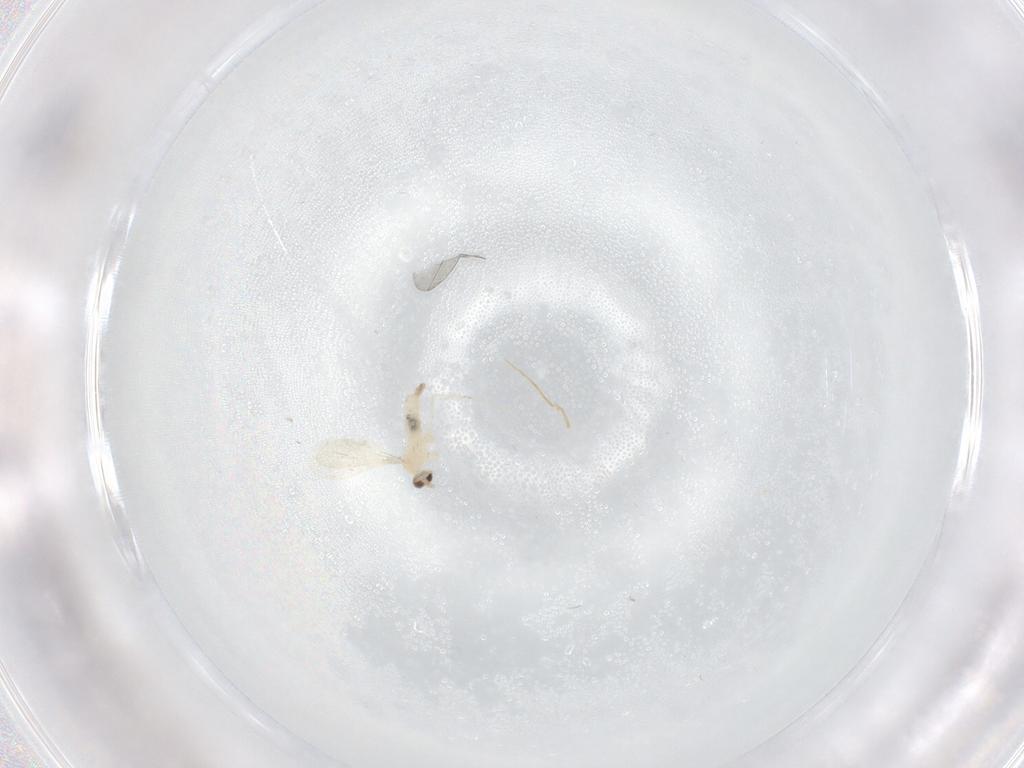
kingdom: Animalia
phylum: Arthropoda
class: Insecta
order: Diptera
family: Cecidomyiidae
